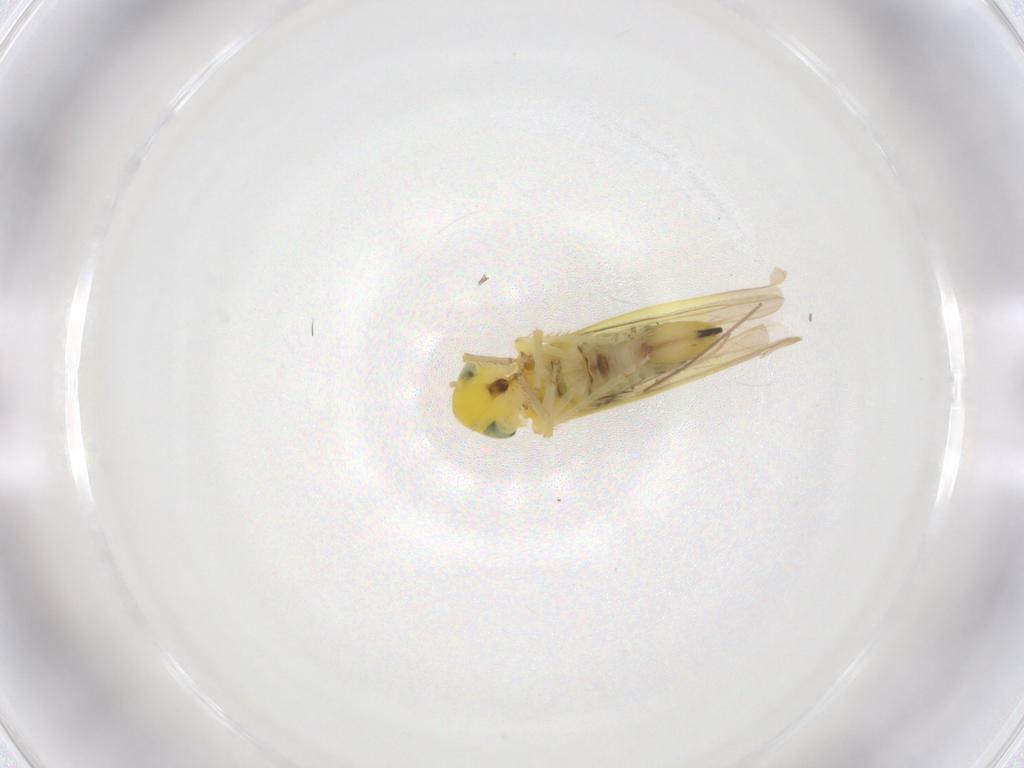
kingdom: Animalia
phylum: Arthropoda
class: Insecta
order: Hemiptera
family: Cicadellidae
